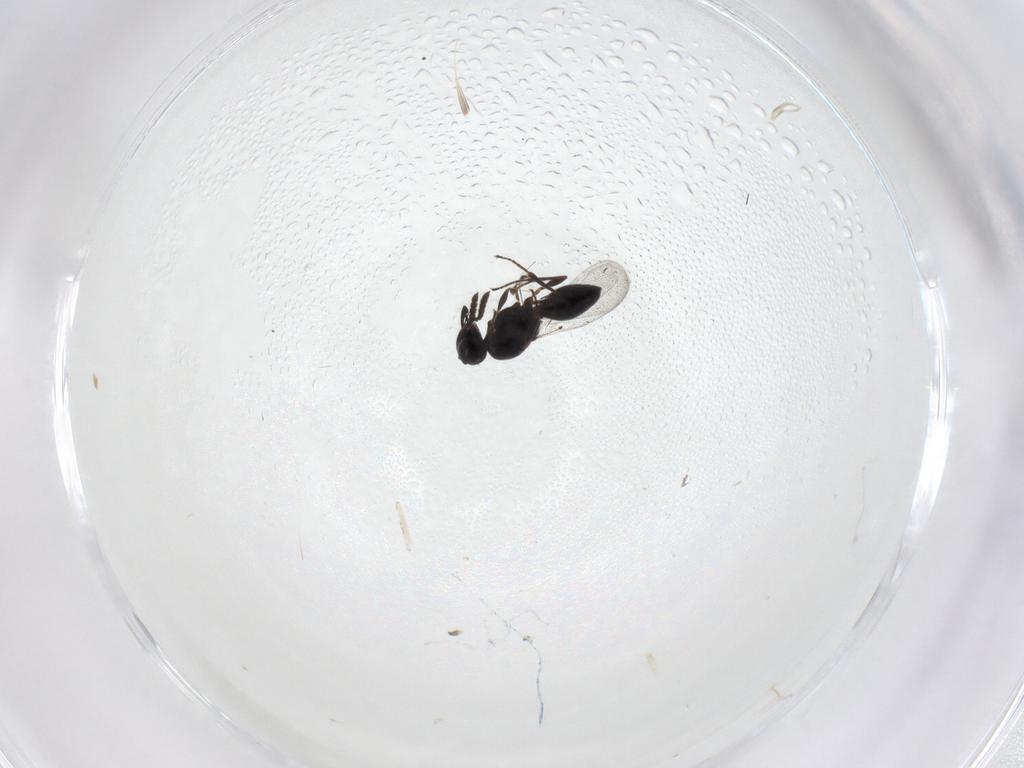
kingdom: Animalia
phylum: Arthropoda
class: Insecta
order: Hymenoptera
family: Platygastridae
